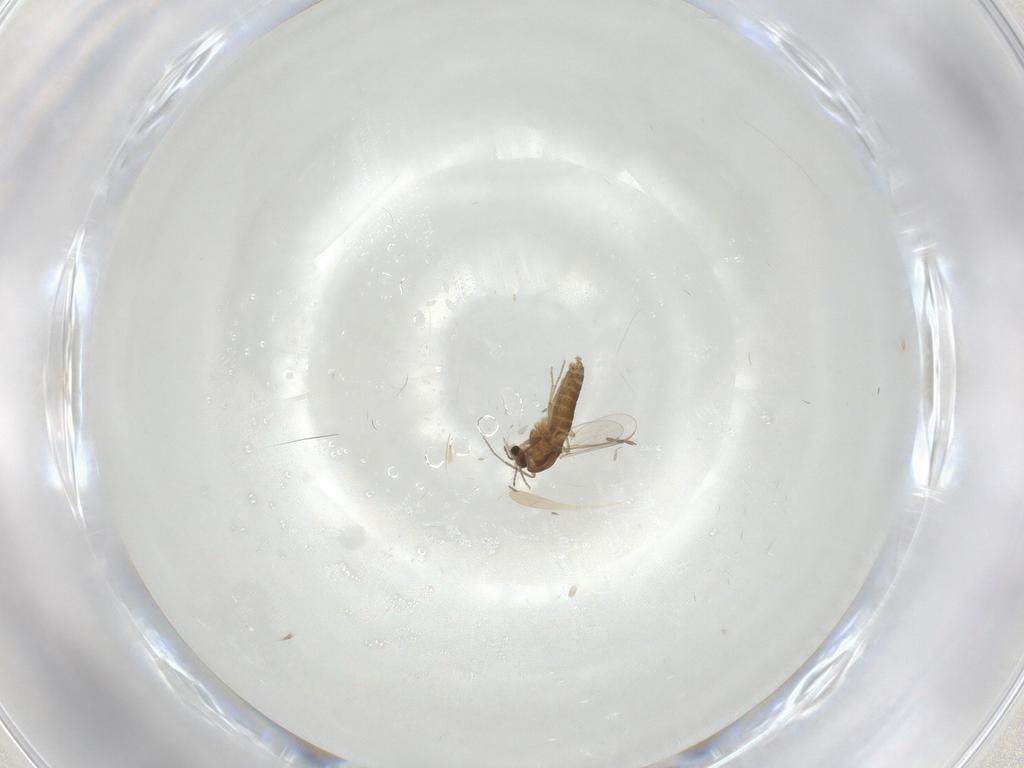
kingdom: Animalia
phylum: Arthropoda
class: Insecta
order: Diptera
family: Chironomidae
